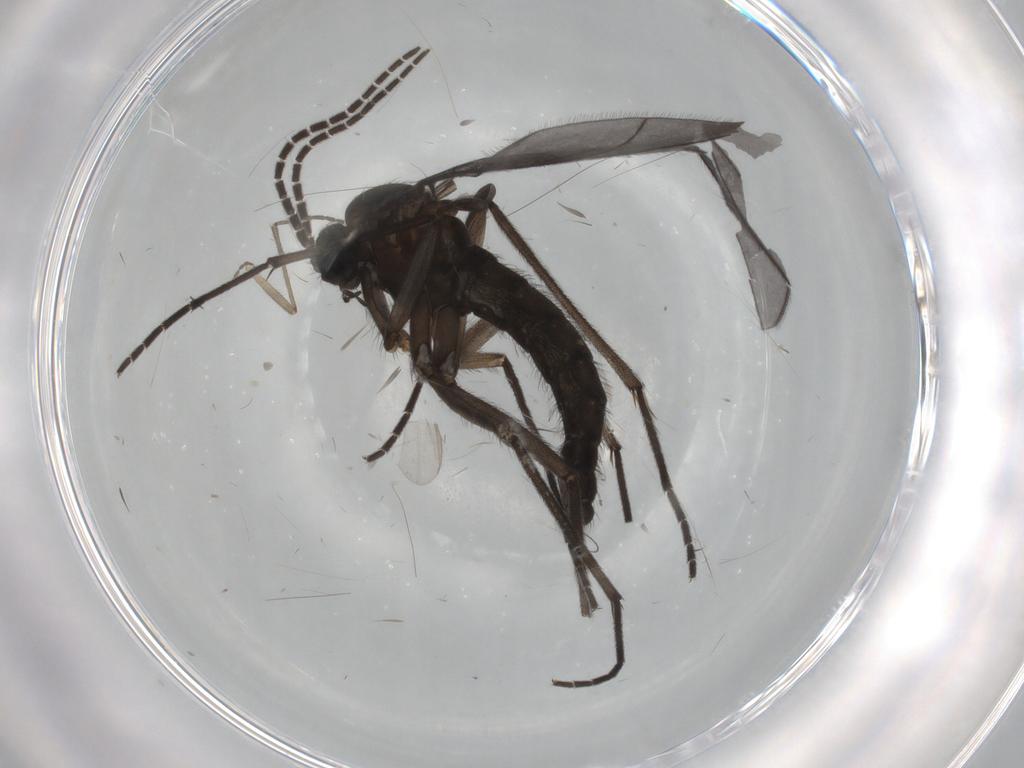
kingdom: Animalia
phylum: Arthropoda
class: Insecta
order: Diptera
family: Sciaridae
